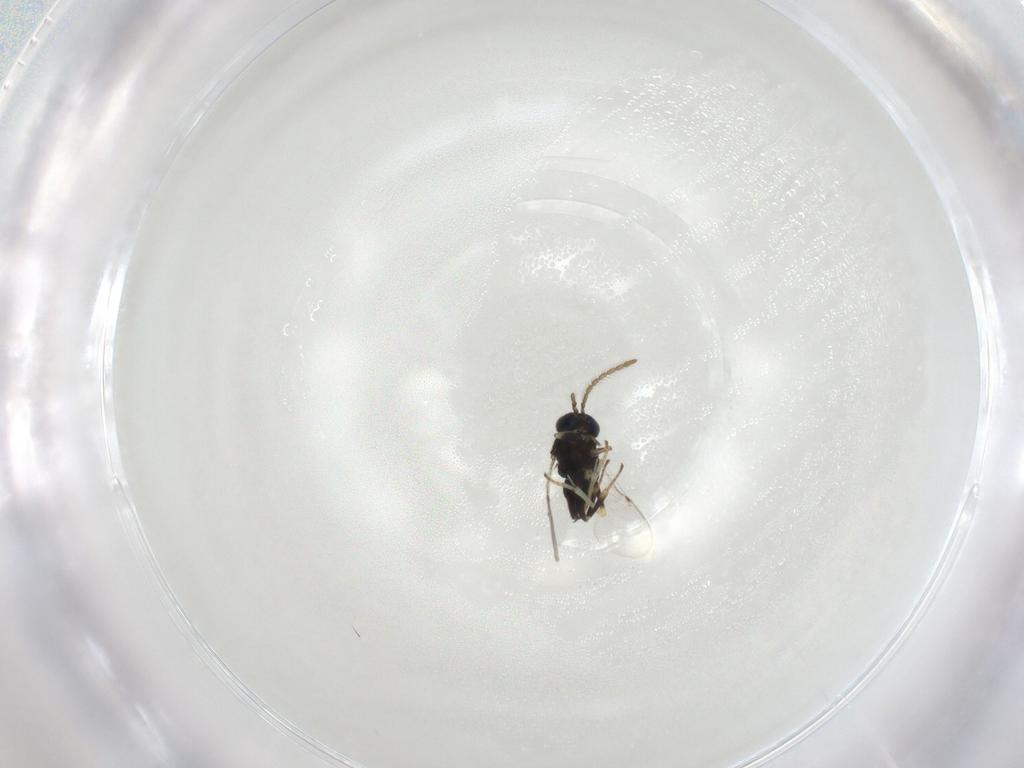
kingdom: Animalia
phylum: Arthropoda
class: Insecta
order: Hymenoptera
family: Encyrtidae
